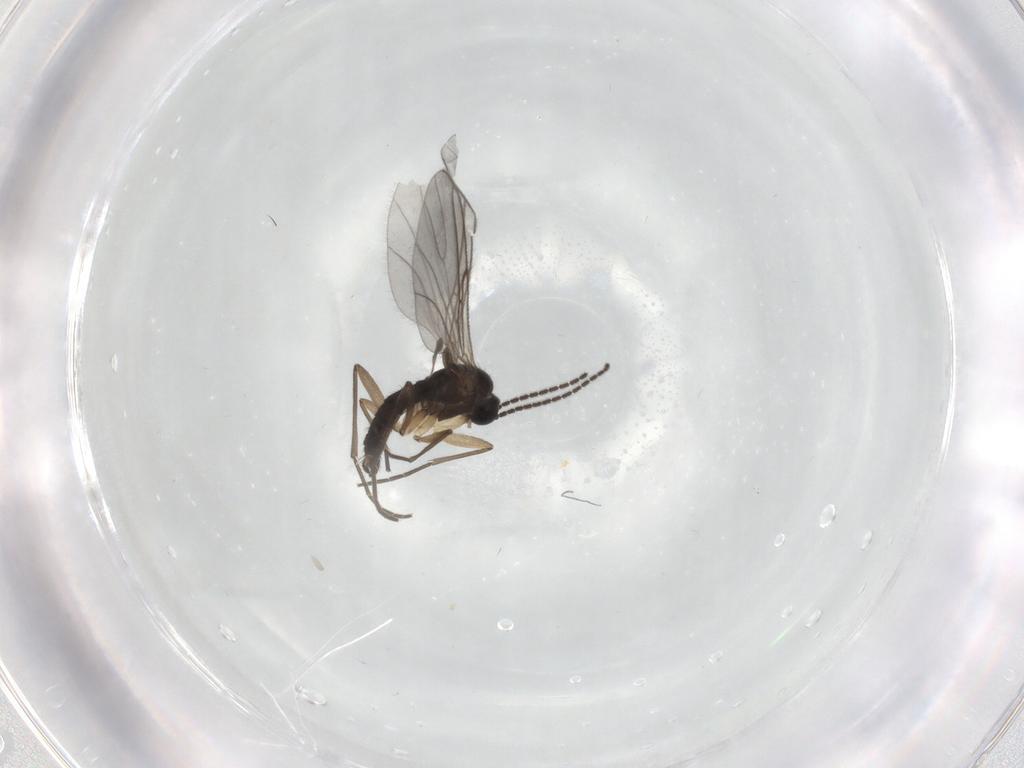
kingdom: Animalia
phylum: Arthropoda
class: Insecta
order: Diptera
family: Sciaridae
